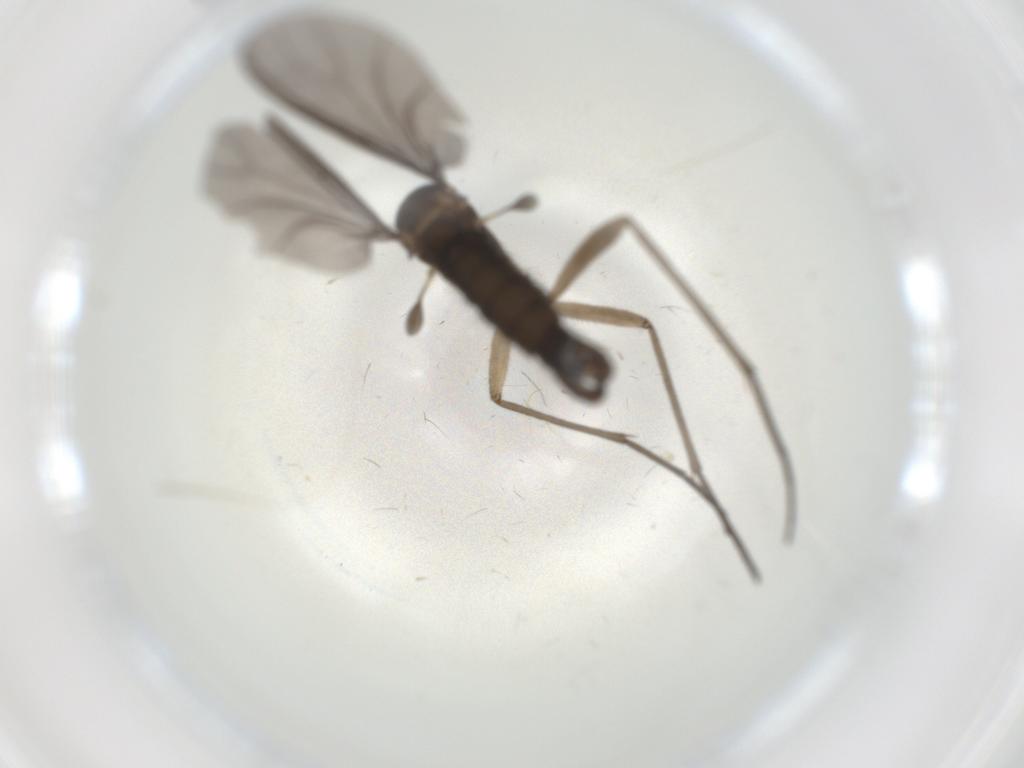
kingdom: Animalia
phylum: Arthropoda
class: Insecta
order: Diptera
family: Sciaridae
